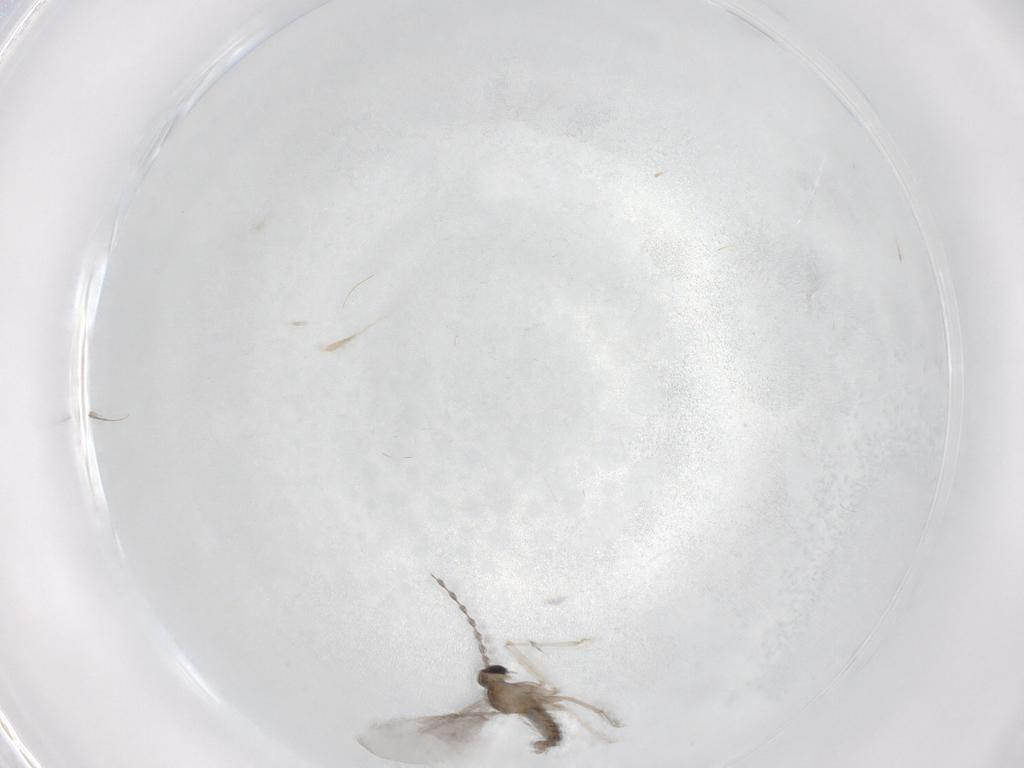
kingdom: Animalia
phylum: Arthropoda
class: Insecta
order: Diptera
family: Cecidomyiidae
